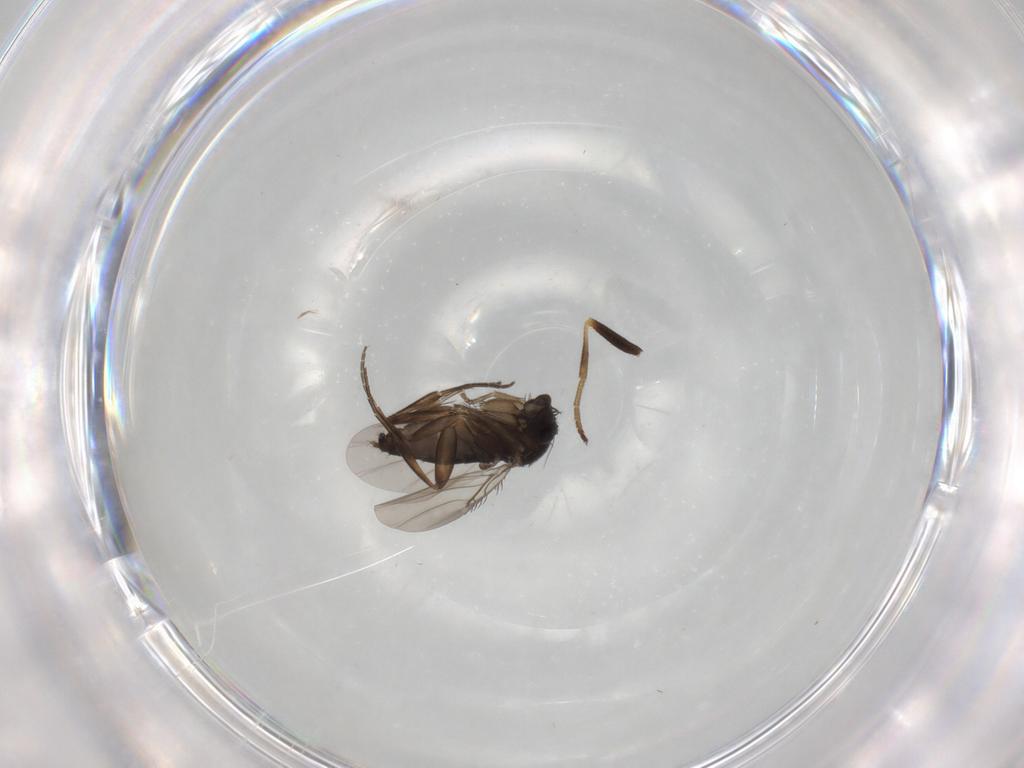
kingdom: Animalia
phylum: Arthropoda
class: Insecta
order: Diptera
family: Phoridae
